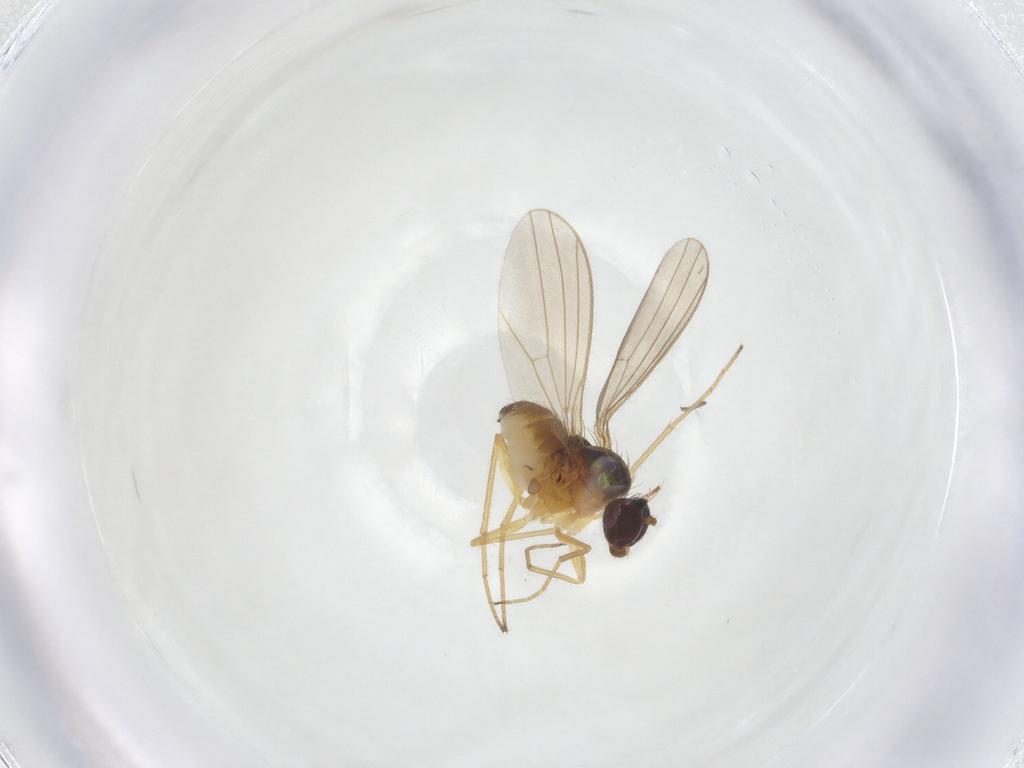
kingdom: Animalia
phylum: Arthropoda
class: Insecta
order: Diptera
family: Dolichopodidae
